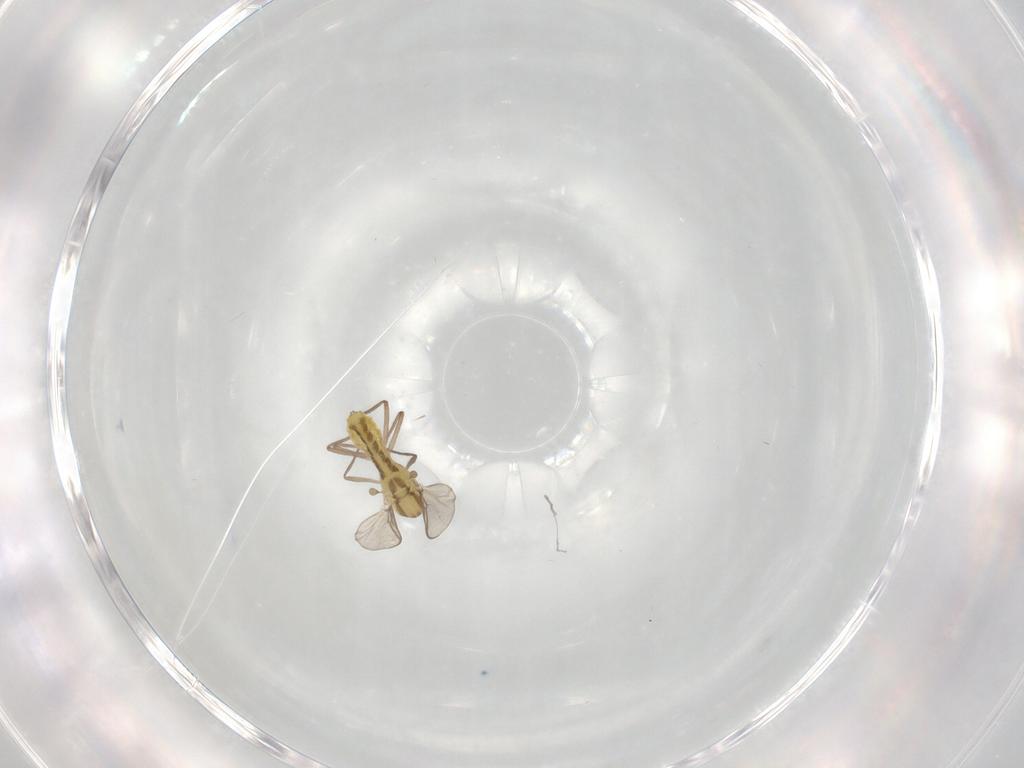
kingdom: Animalia
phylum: Arthropoda
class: Insecta
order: Diptera
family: Chironomidae
